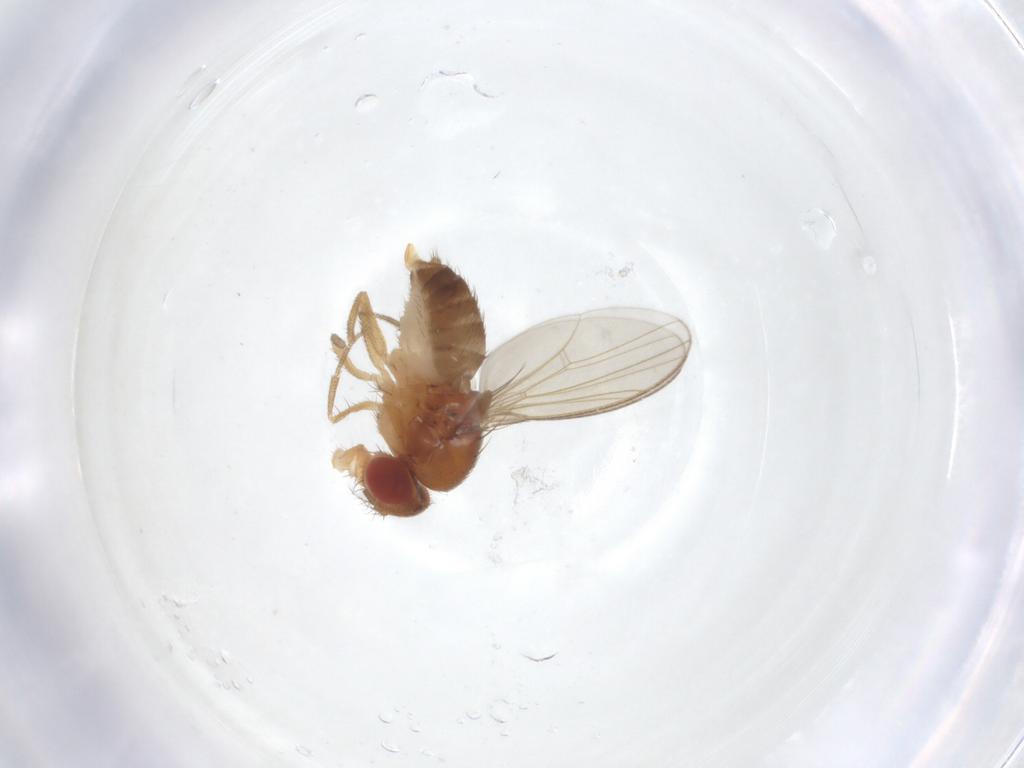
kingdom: Animalia
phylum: Arthropoda
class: Insecta
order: Diptera
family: Drosophilidae
